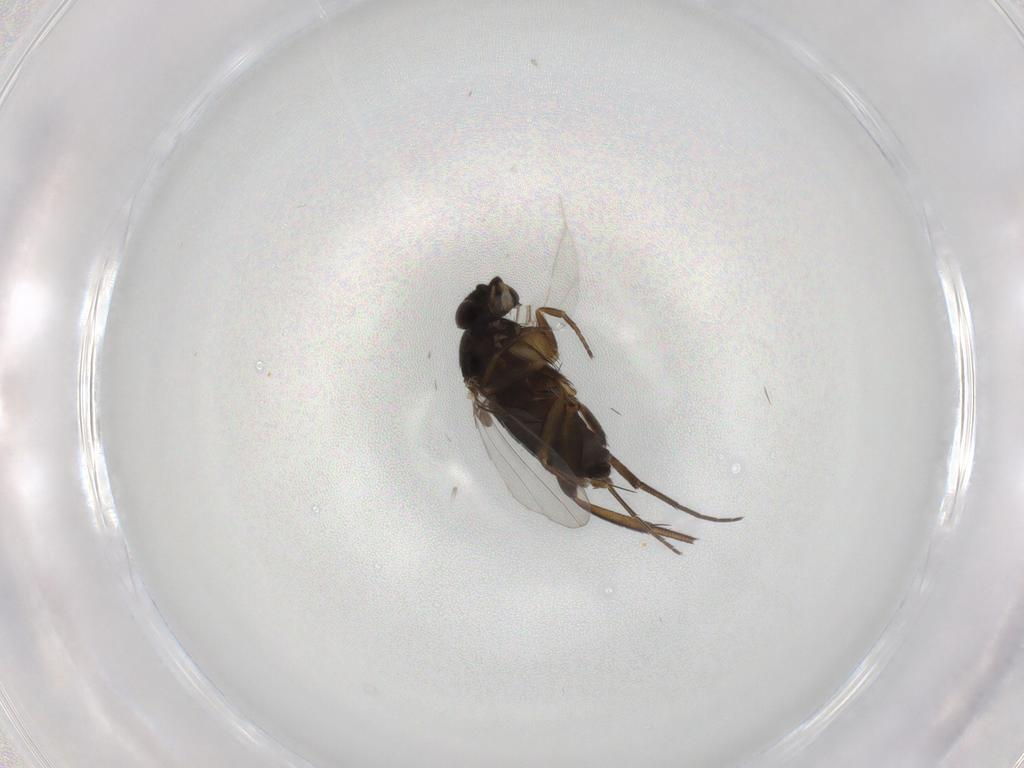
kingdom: Animalia
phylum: Arthropoda
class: Insecta
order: Diptera
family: Phoridae
